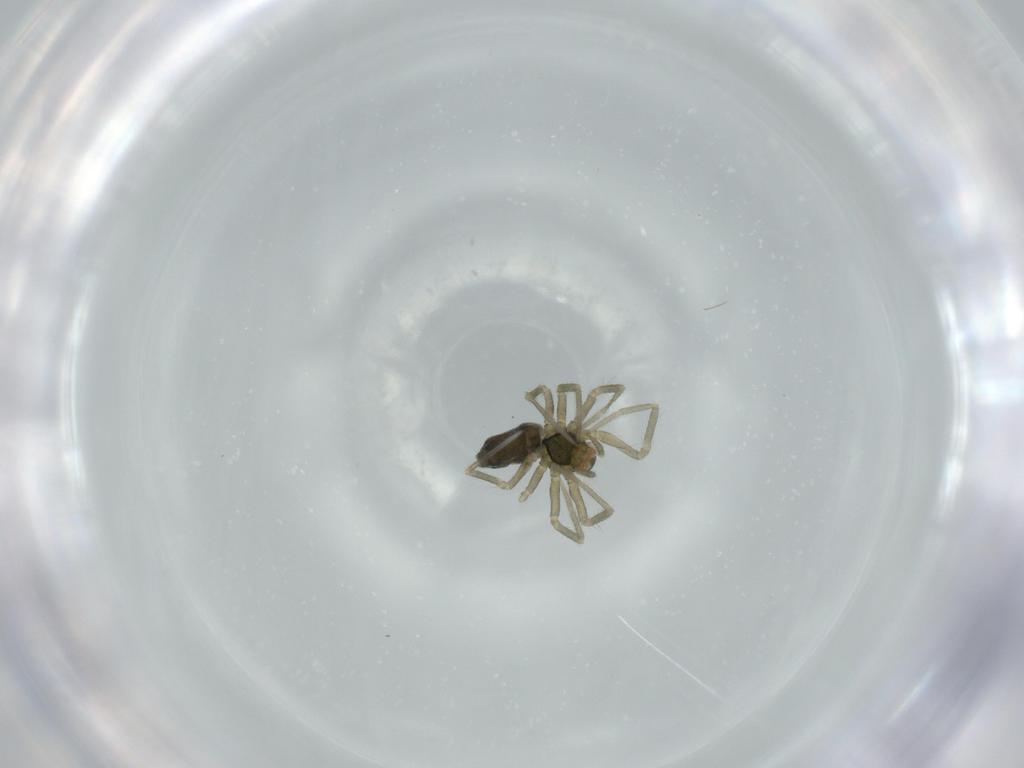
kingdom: Animalia
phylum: Arthropoda
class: Arachnida
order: Araneae
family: Linyphiidae
